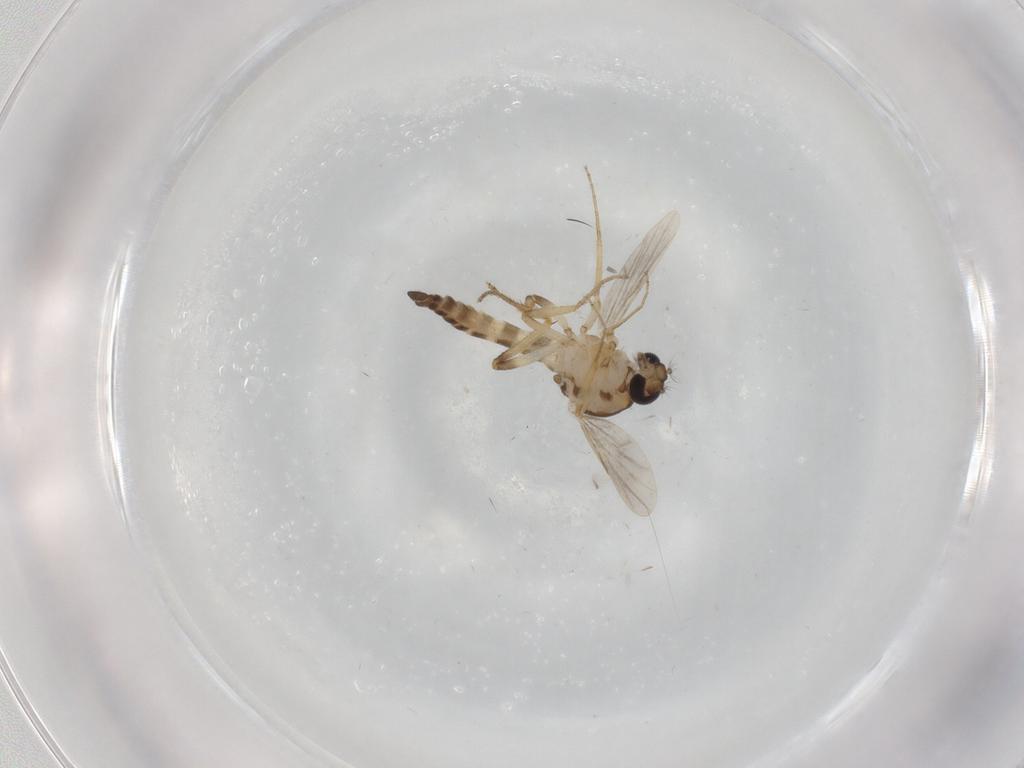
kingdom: Animalia
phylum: Arthropoda
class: Insecta
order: Diptera
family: Ceratopogonidae
